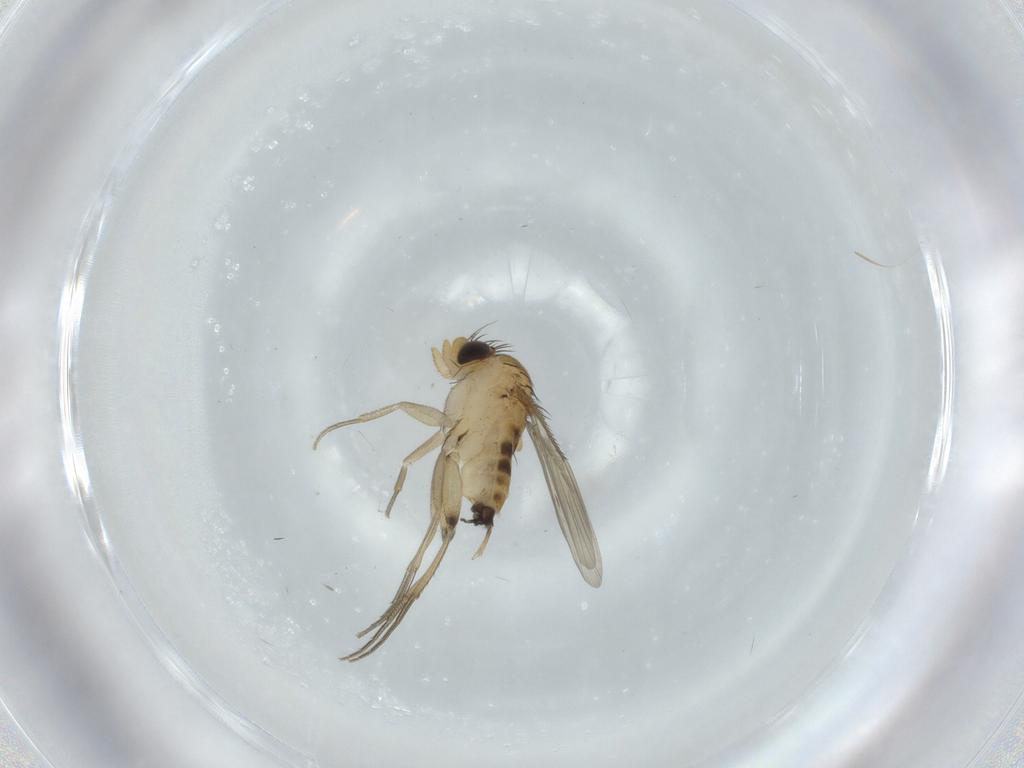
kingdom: Animalia
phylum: Arthropoda
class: Insecta
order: Diptera
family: Phoridae
